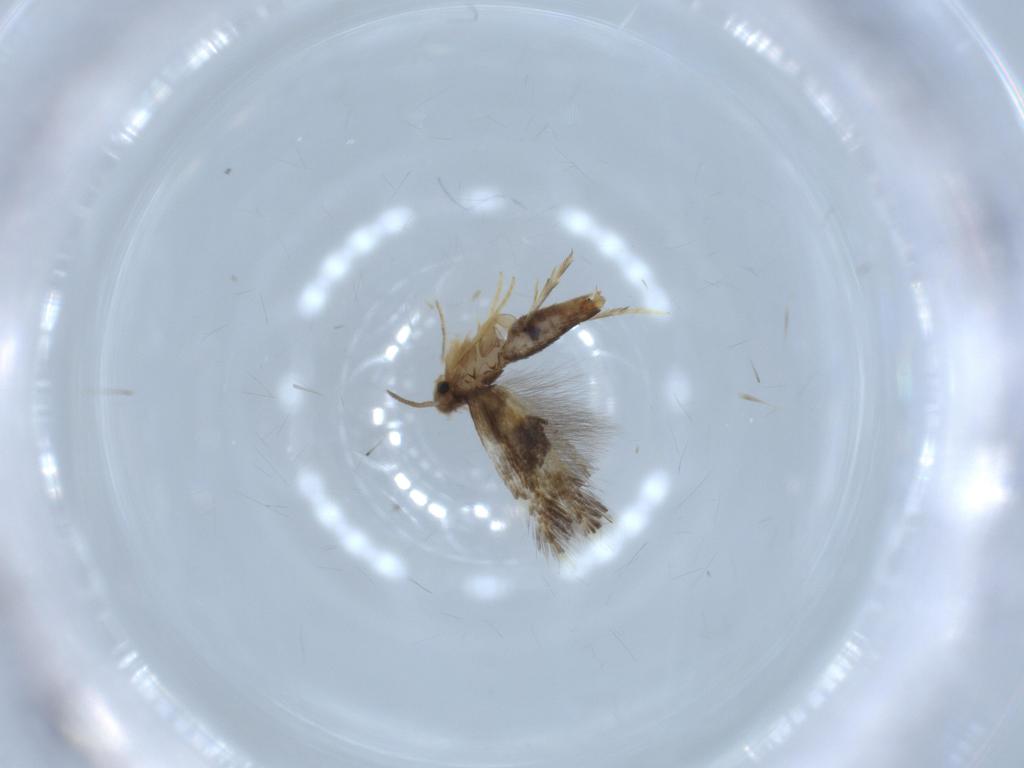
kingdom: Animalia
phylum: Arthropoda
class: Insecta
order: Lepidoptera
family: Heliozelidae
